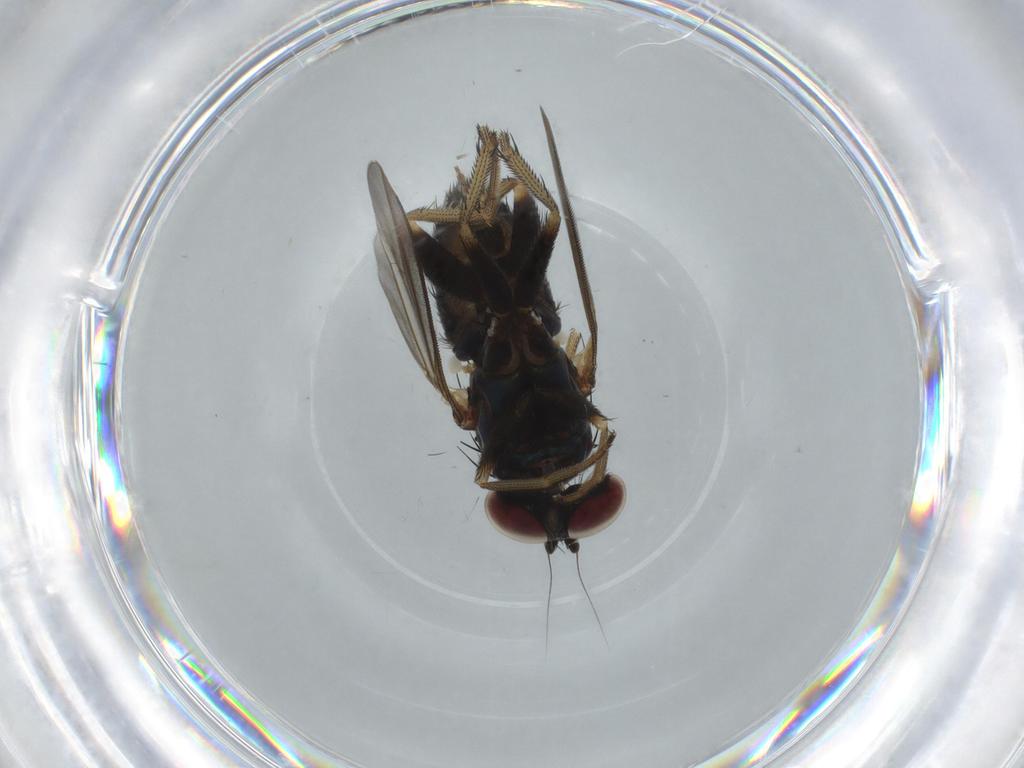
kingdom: Animalia
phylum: Arthropoda
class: Insecta
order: Diptera
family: Dolichopodidae
